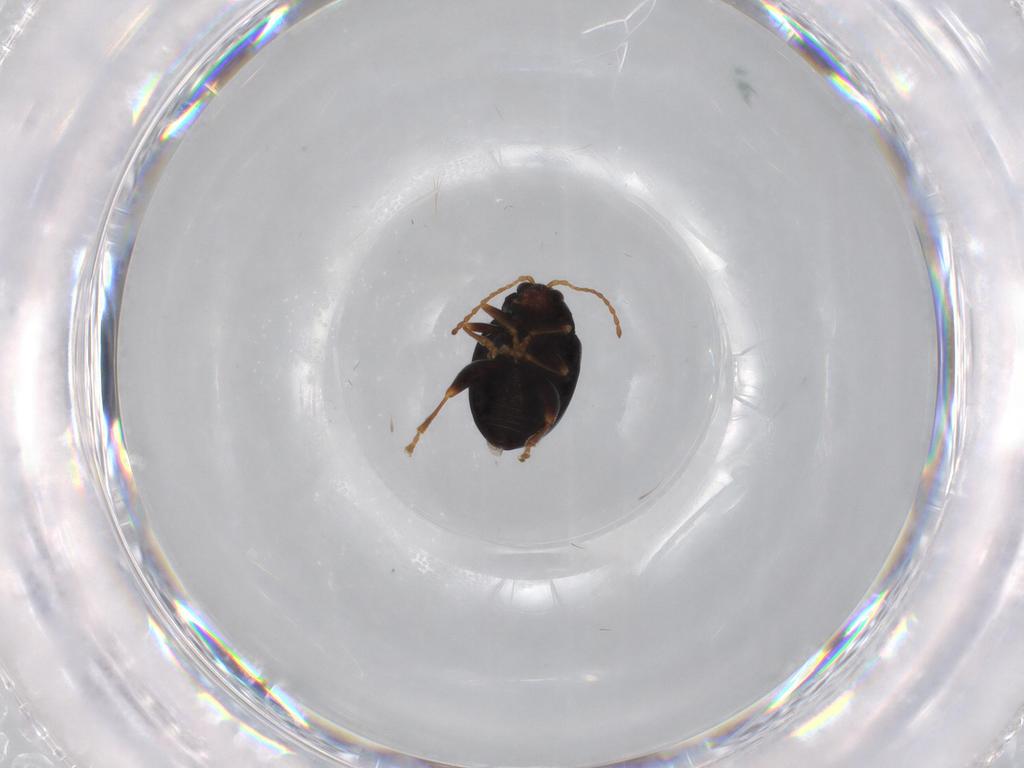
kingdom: Animalia
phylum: Arthropoda
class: Insecta
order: Coleoptera
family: Chrysomelidae
